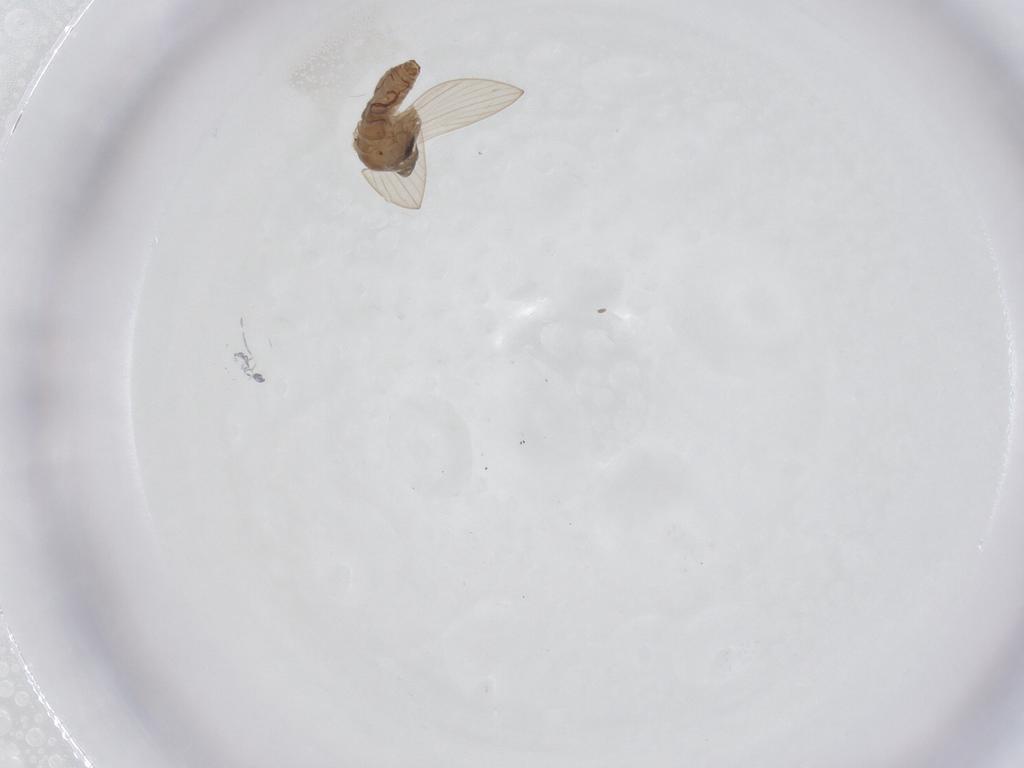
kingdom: Animalia
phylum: Arthropoda
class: Insecta
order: Diptera
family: Psychodidae
